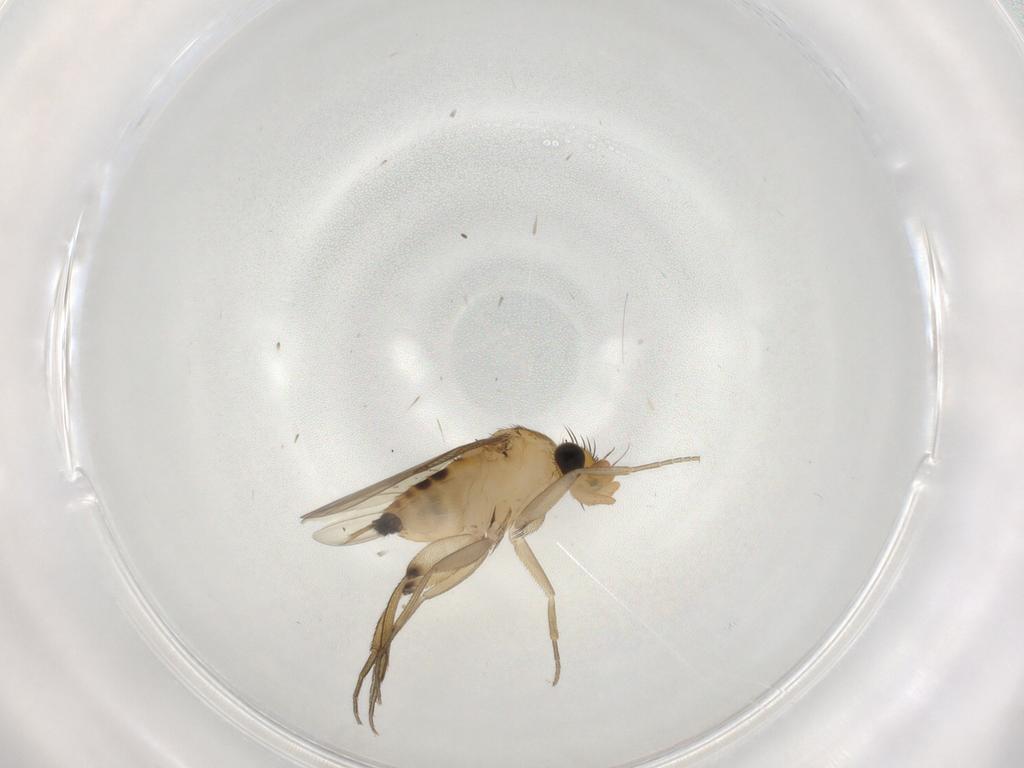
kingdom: Animalia
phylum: Arthropoda
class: Insecta
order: Diptera
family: Phoridae
